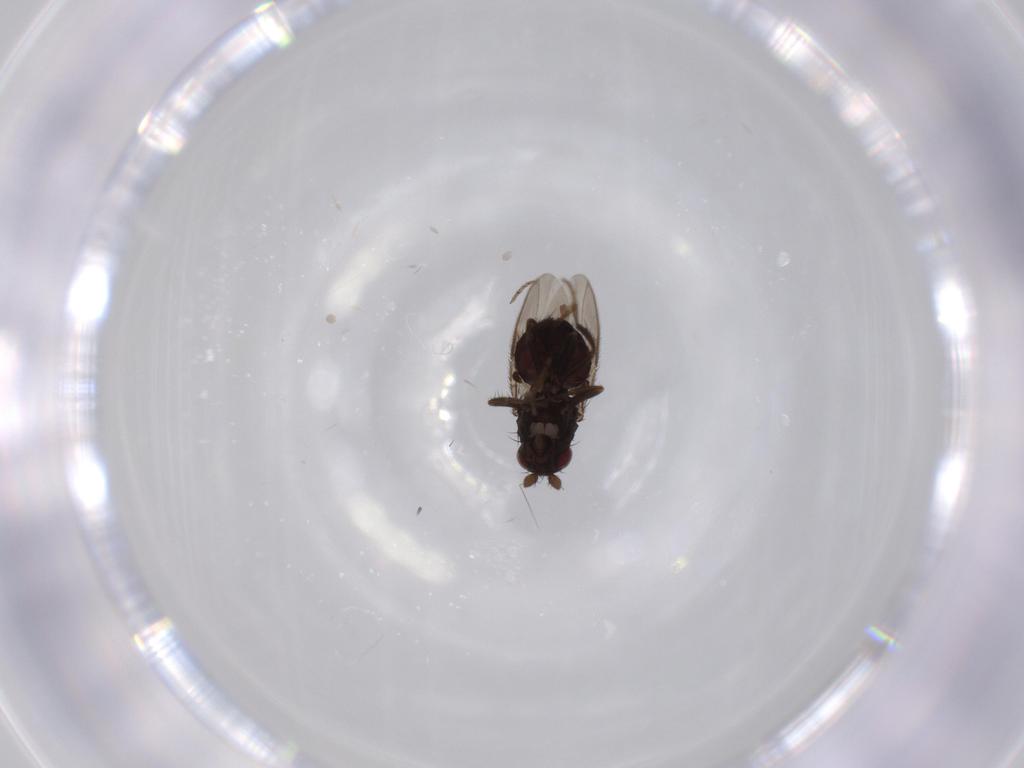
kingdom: Animalia
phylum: Arthropoda
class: Insecta
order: Diptera
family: Sphaeroceridae
